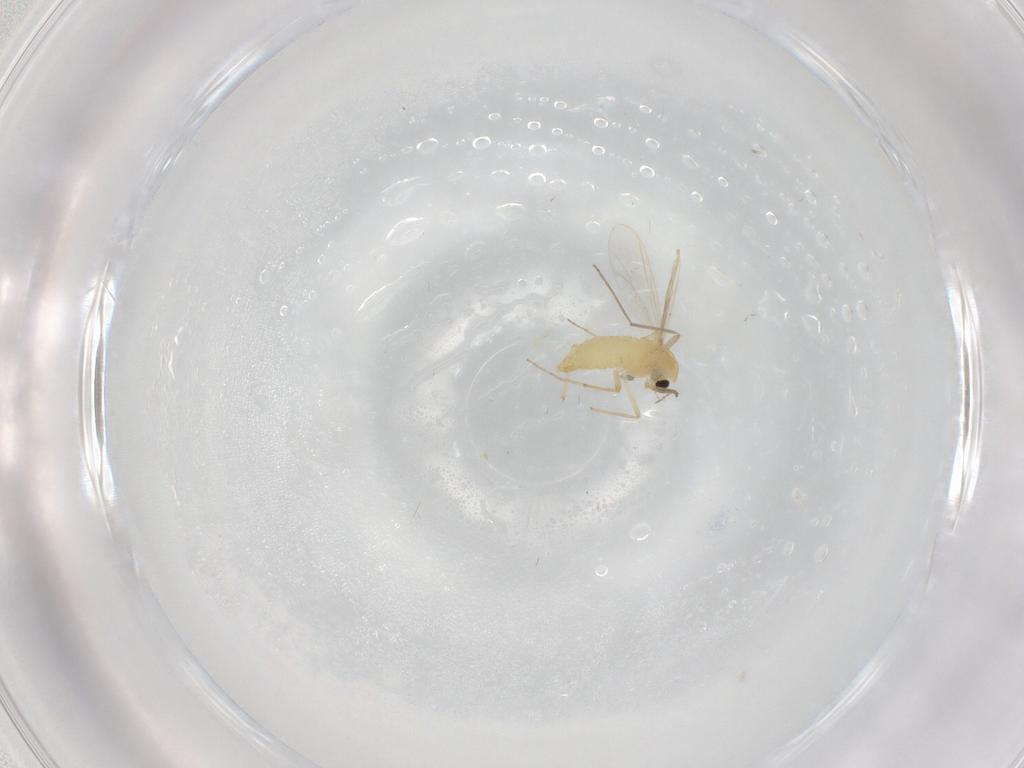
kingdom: Animalia
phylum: Arthropoda
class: Insecta
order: Diptera
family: Chironomidae
